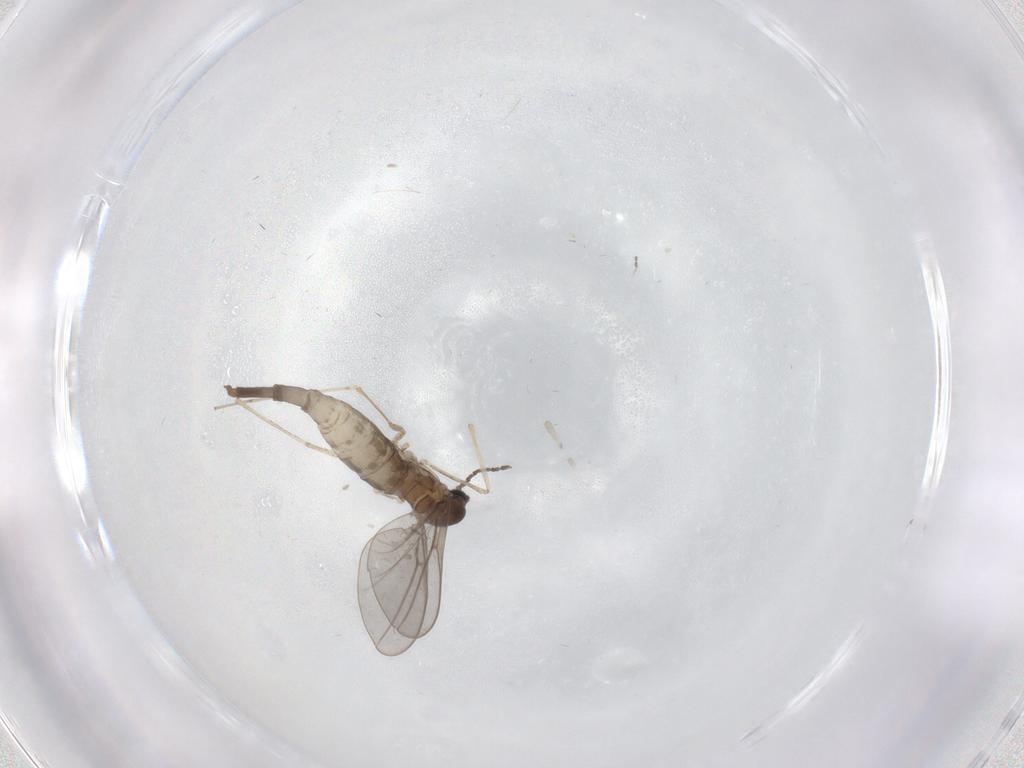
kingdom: Animalia
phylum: Arthropoda
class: Insecta
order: Diptera
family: Cecidomyiidae
